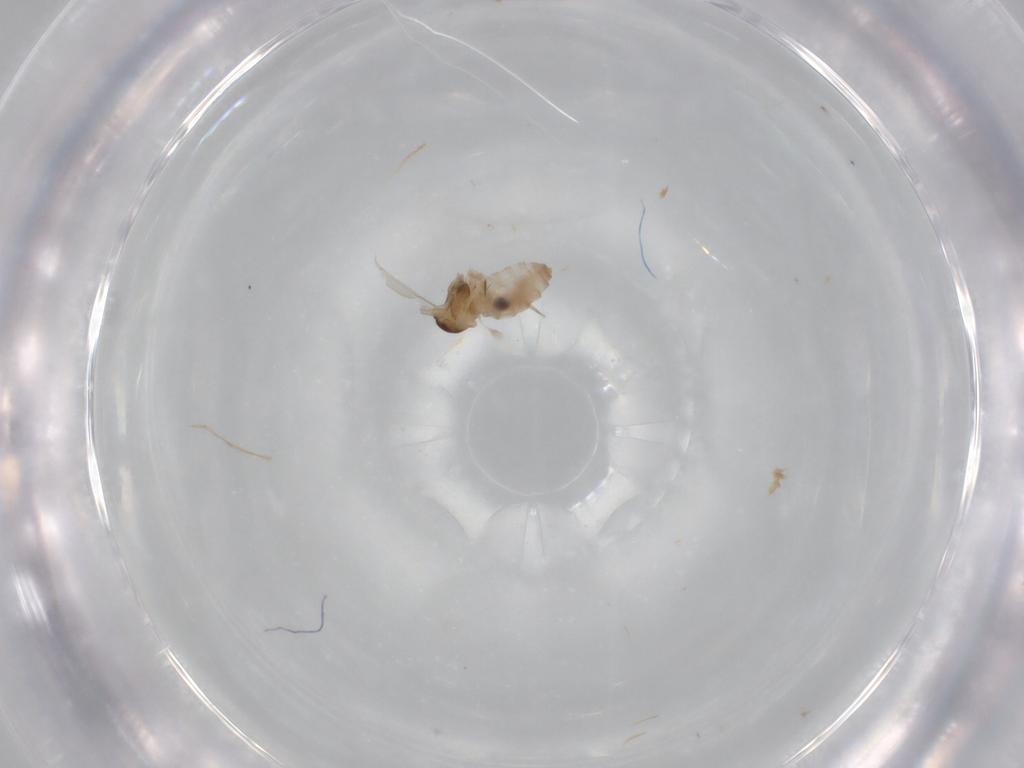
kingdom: Animalia
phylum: Arthropoda
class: Insecta
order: Diptera
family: Cecidomyiidae
